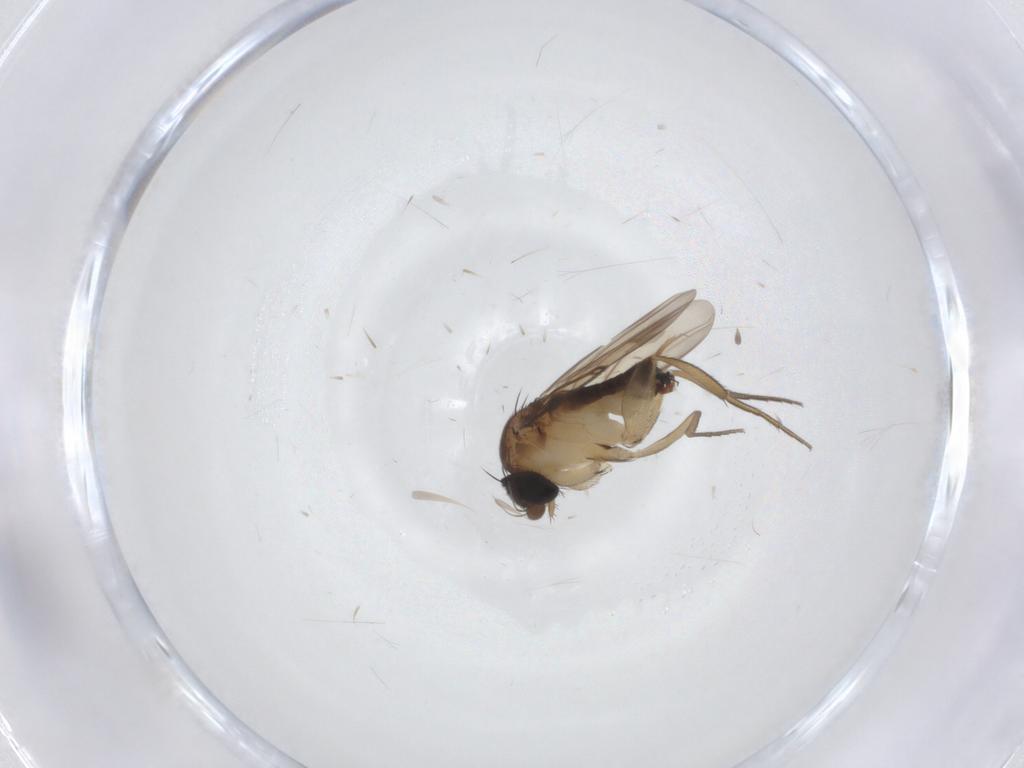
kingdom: Animalia
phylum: Arthropoda
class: Insecta
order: Diptera
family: Phoridae
